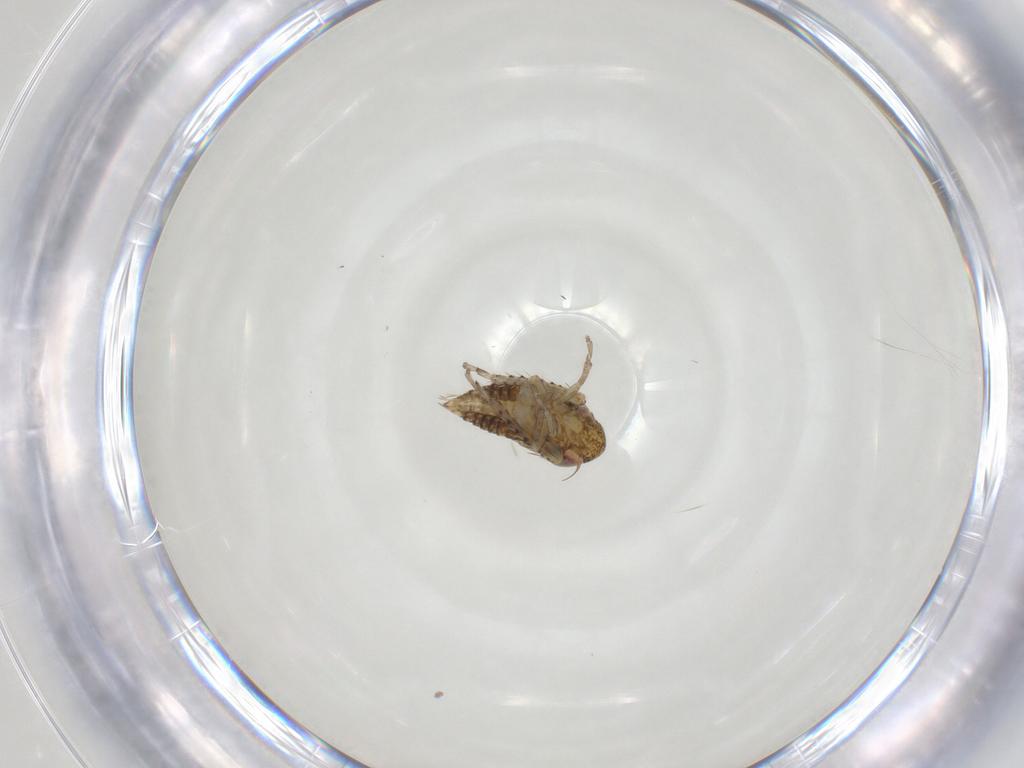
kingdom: Animalia
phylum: Arthropoda
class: Insecta
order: Hemiptera
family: Cicadellidae
